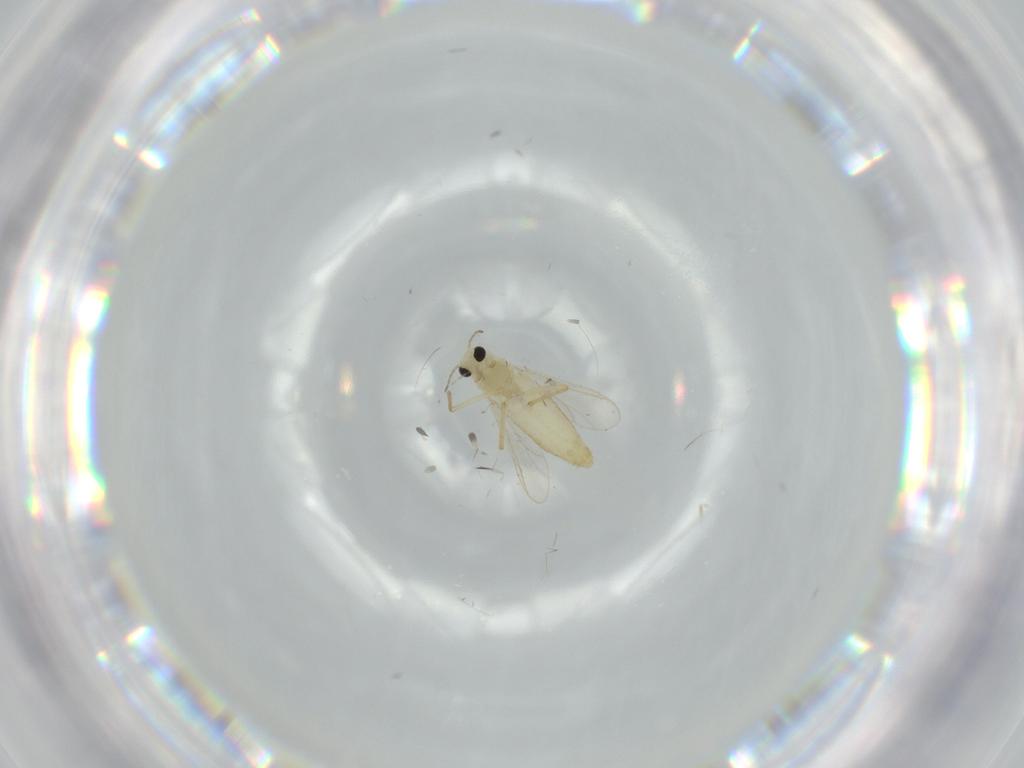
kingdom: Animalia
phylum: Arthropoda
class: Insecta
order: Diptera
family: Chironomidae
